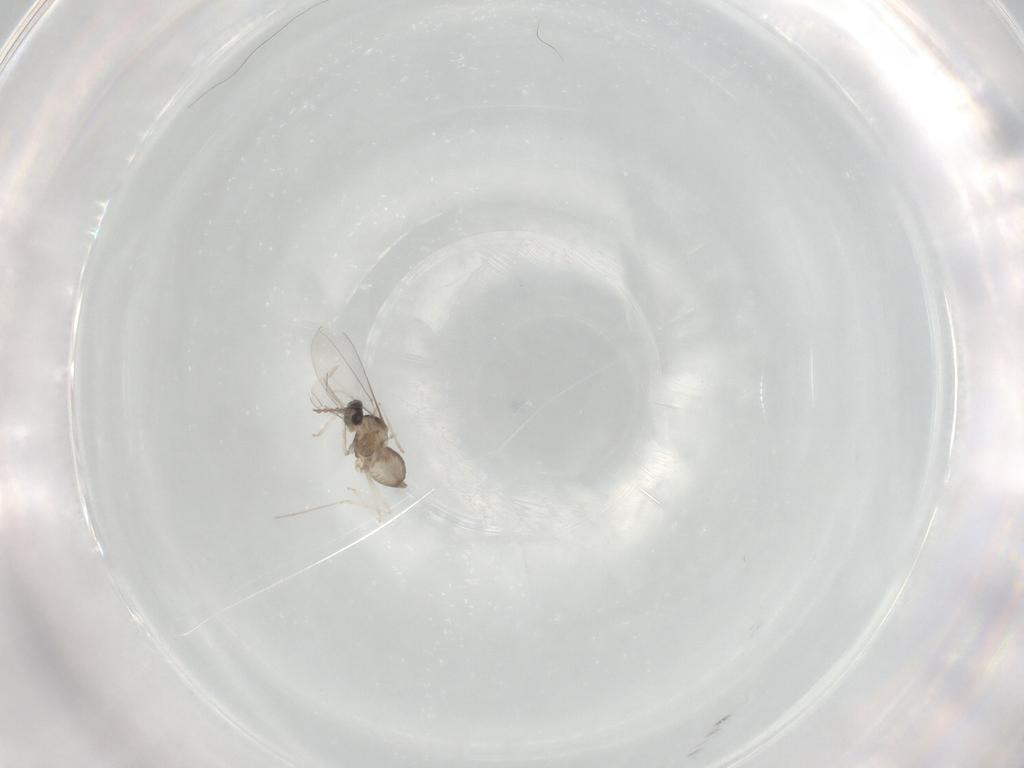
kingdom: Animalia
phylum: Arthropoda
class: Insecta
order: Diptera
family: Cecidomyiidae
